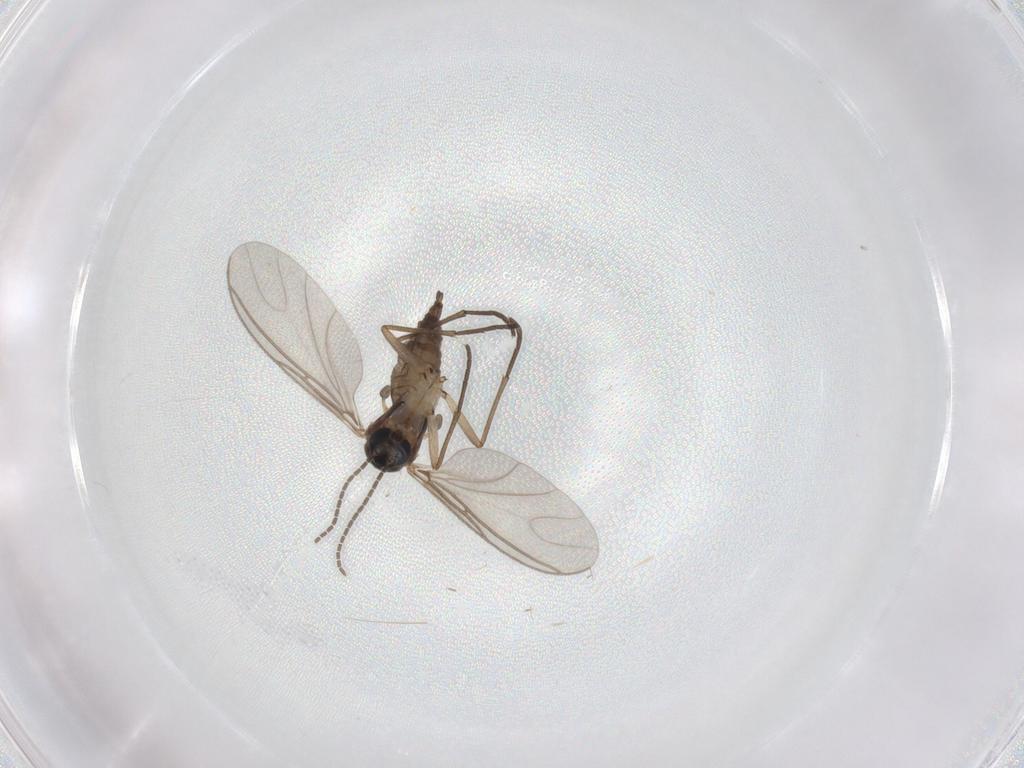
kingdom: Animalia
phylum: Arthropoda
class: Insecta
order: Diptera
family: Sciaridae
